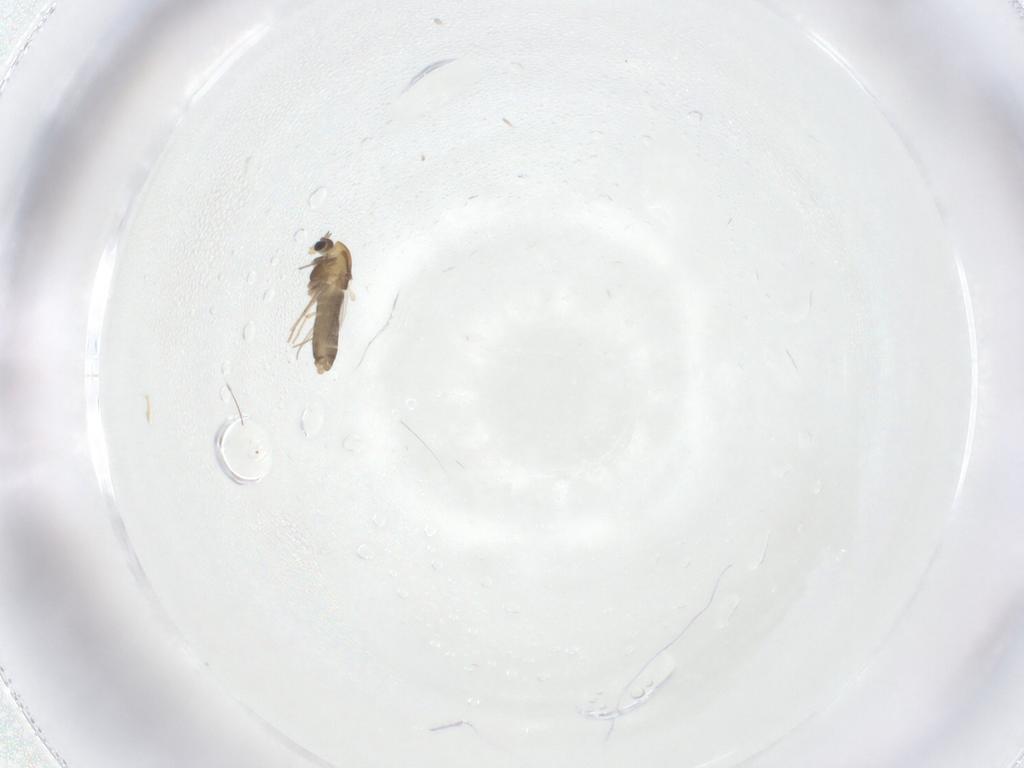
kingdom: Animalia
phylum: Arthropoda
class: Insecta
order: Diptera
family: Chironomidae
